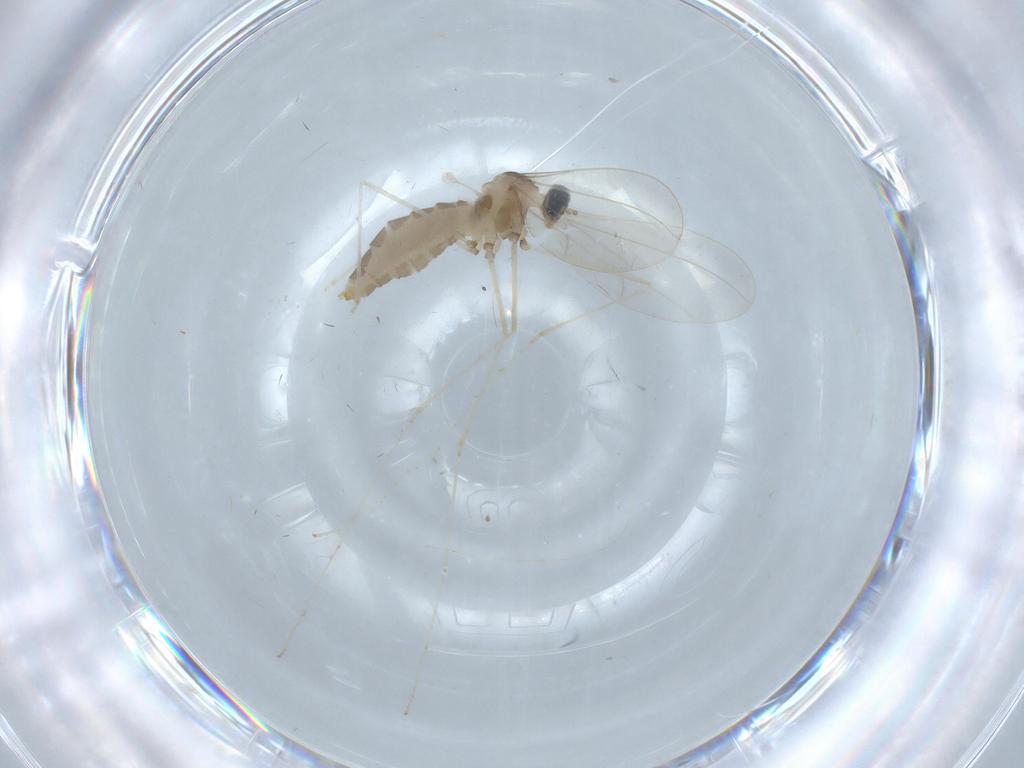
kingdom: Animalia
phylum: Arthropoda
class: Insecta
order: Diptera
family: Cecidomyiidae
